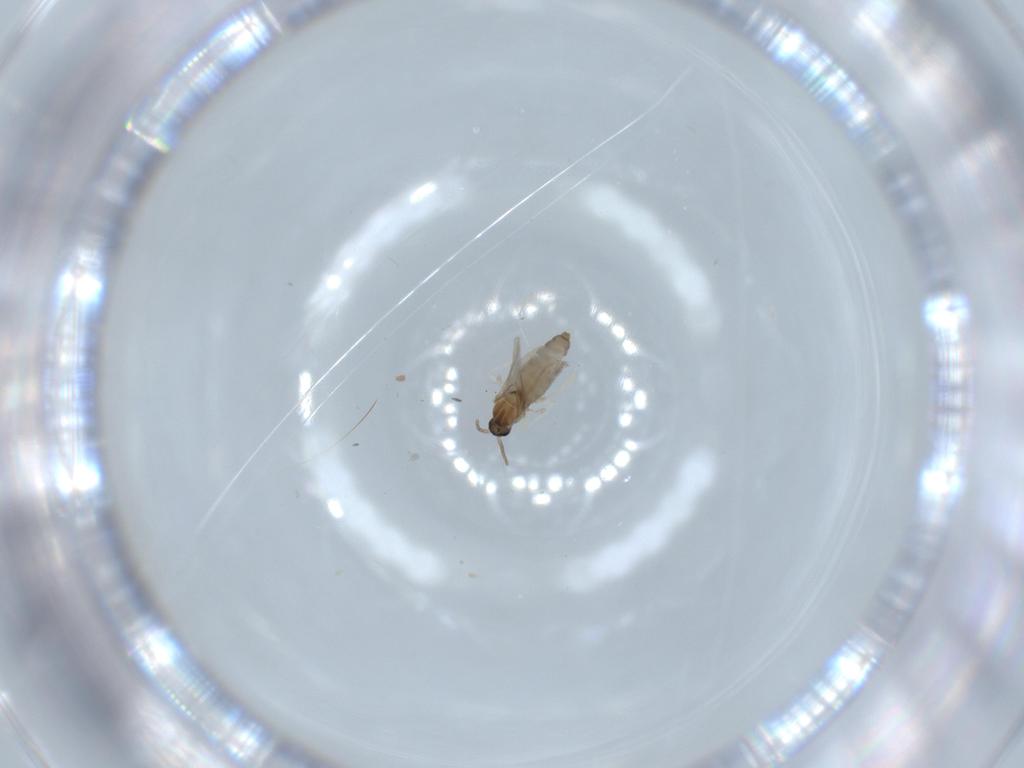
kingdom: Animalia
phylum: Arthropoda
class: Insecta
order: Diptera
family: Cecidomyiidae
